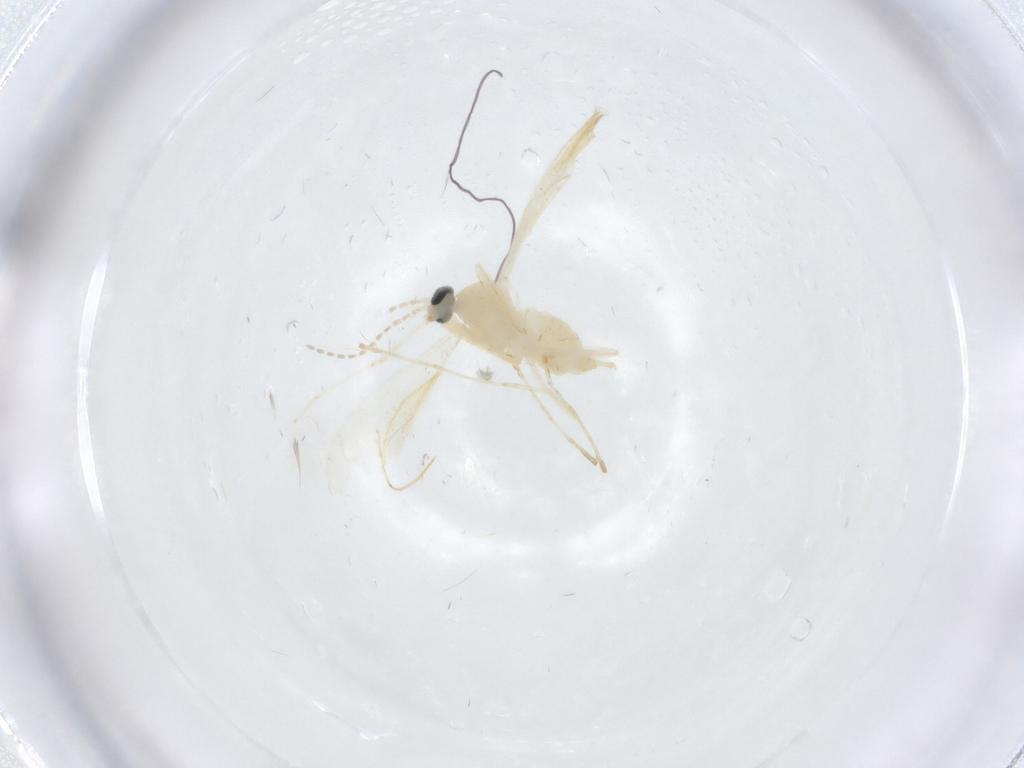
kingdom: Animalia
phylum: Arthropoda
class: Insecta
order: Diptera
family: Cecidomyiidae
